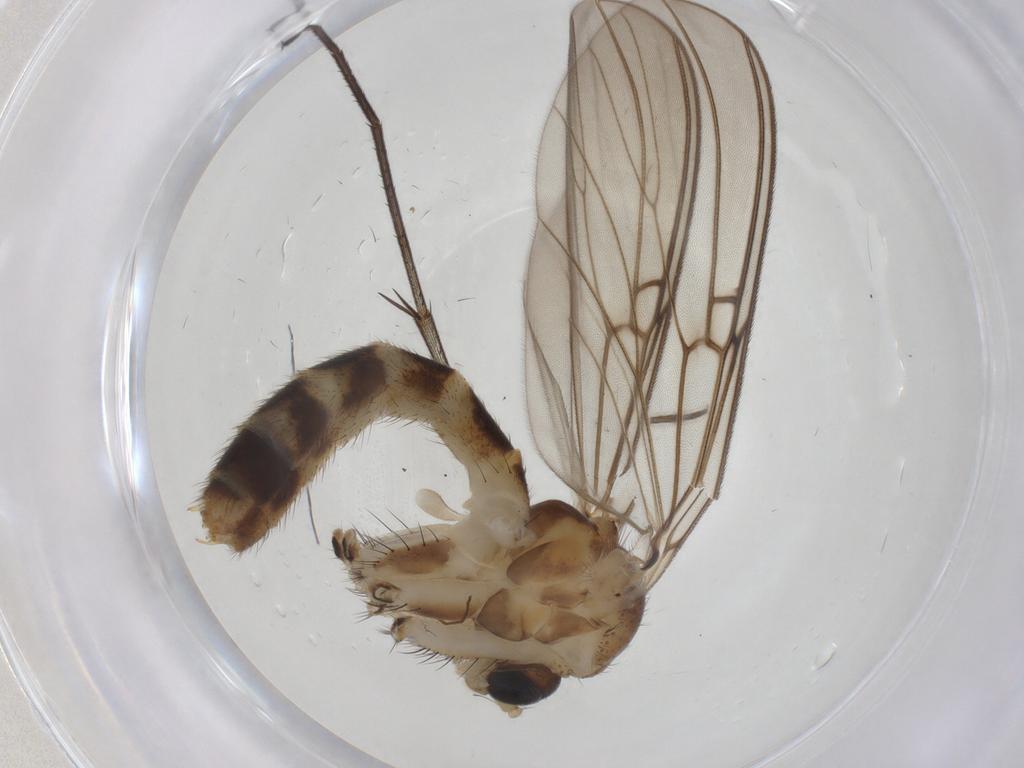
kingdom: Animalia
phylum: Arthropoda
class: Insecta
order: Diptera
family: Mycetophilidae
